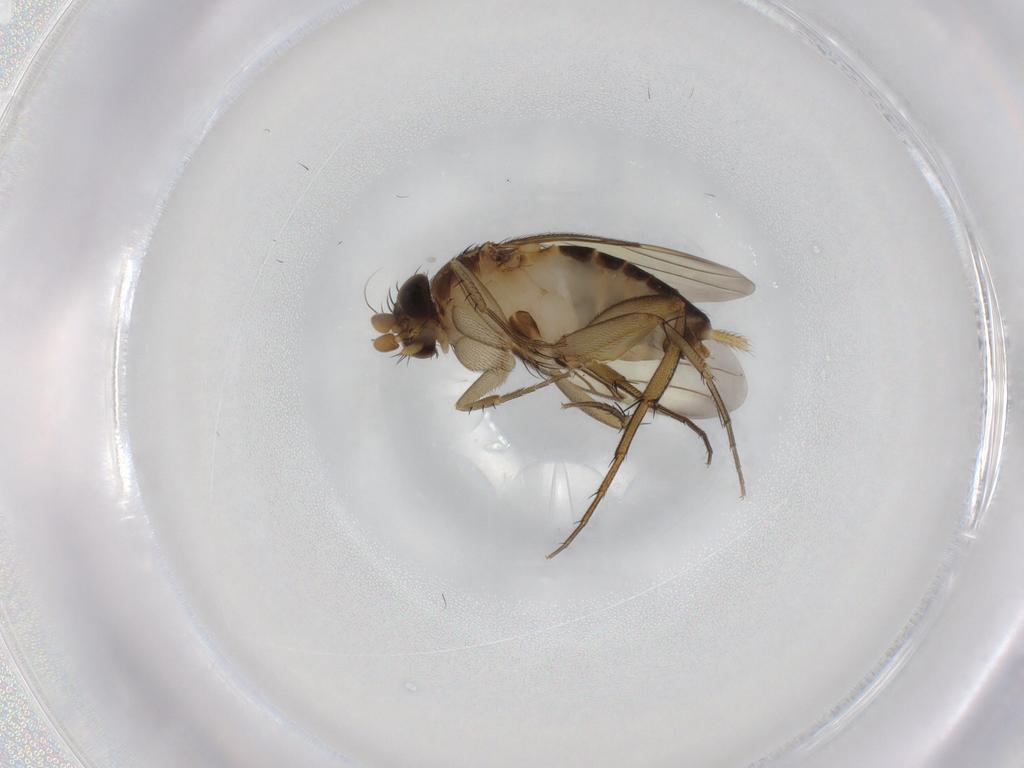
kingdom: Animalia
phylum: Arthropoda
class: Insecta
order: Diptera
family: Phoridae
